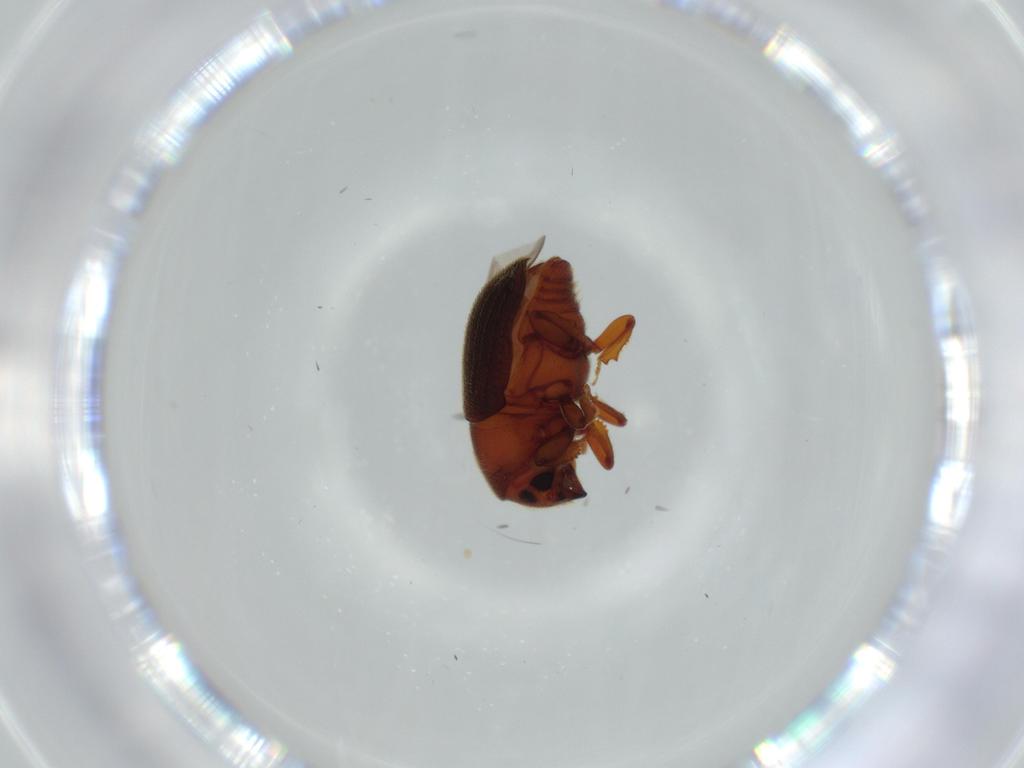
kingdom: Animalia
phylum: Arthropoda
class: Insecta
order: Coleoptera
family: Curculionidae
